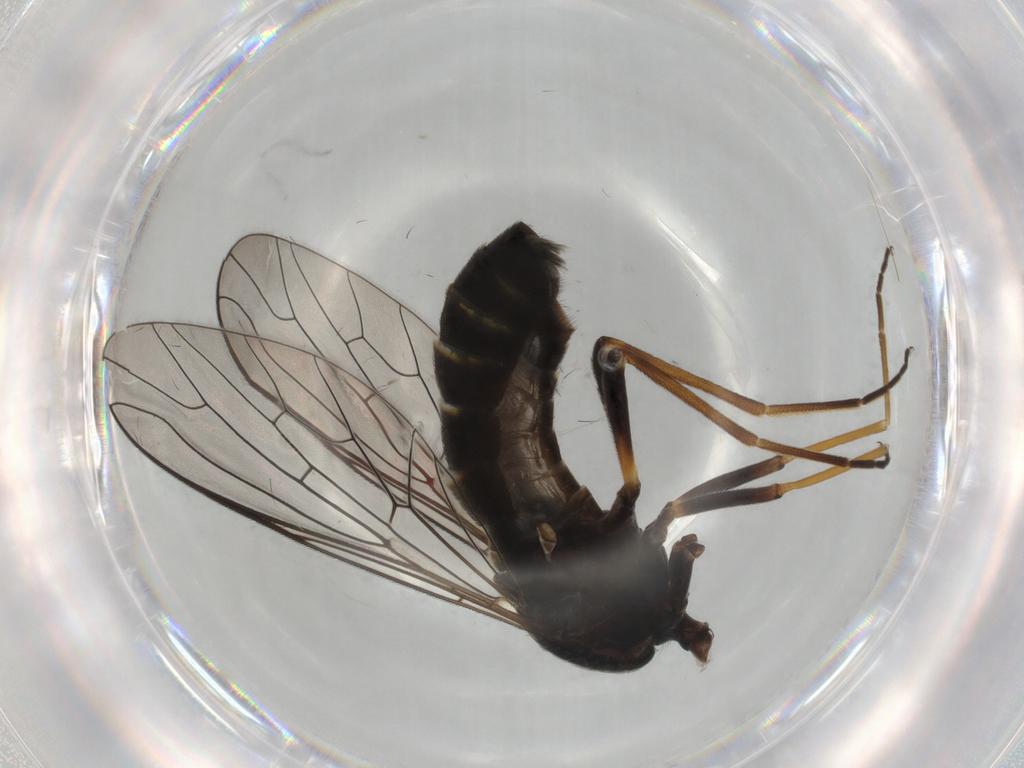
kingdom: Animalia
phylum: Arthropoda
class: Insecta
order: Diptera
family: Bombyliidae
